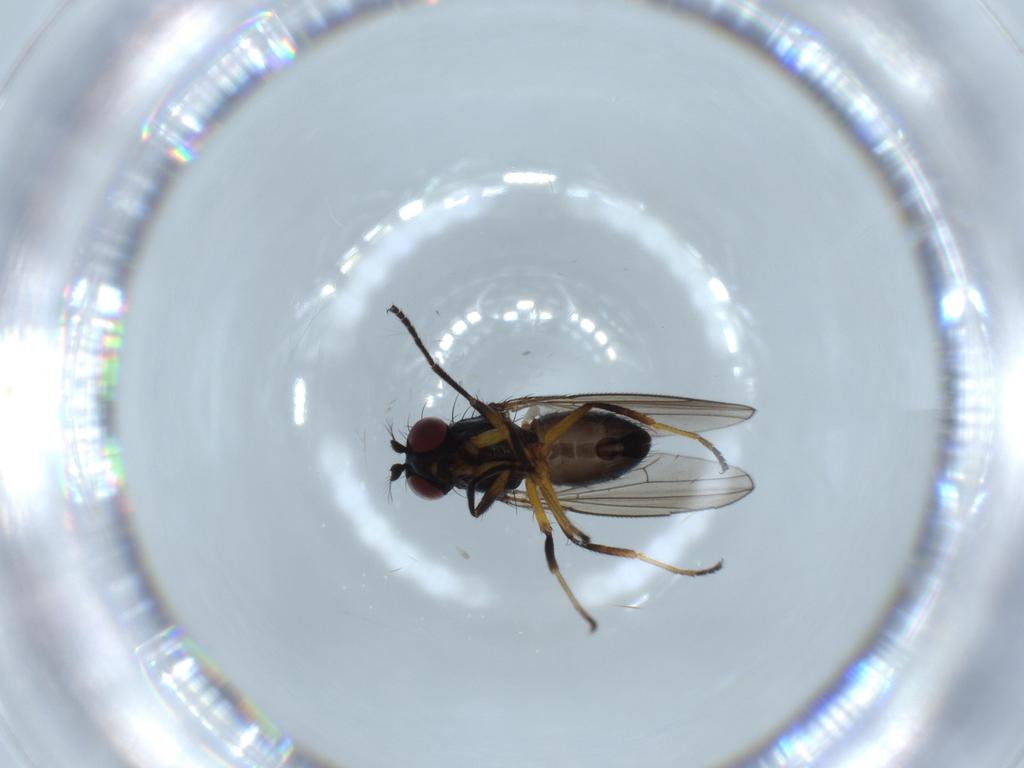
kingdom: Animalia
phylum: Arthropoda
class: Insecta
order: Diptera
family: Ephydridae
